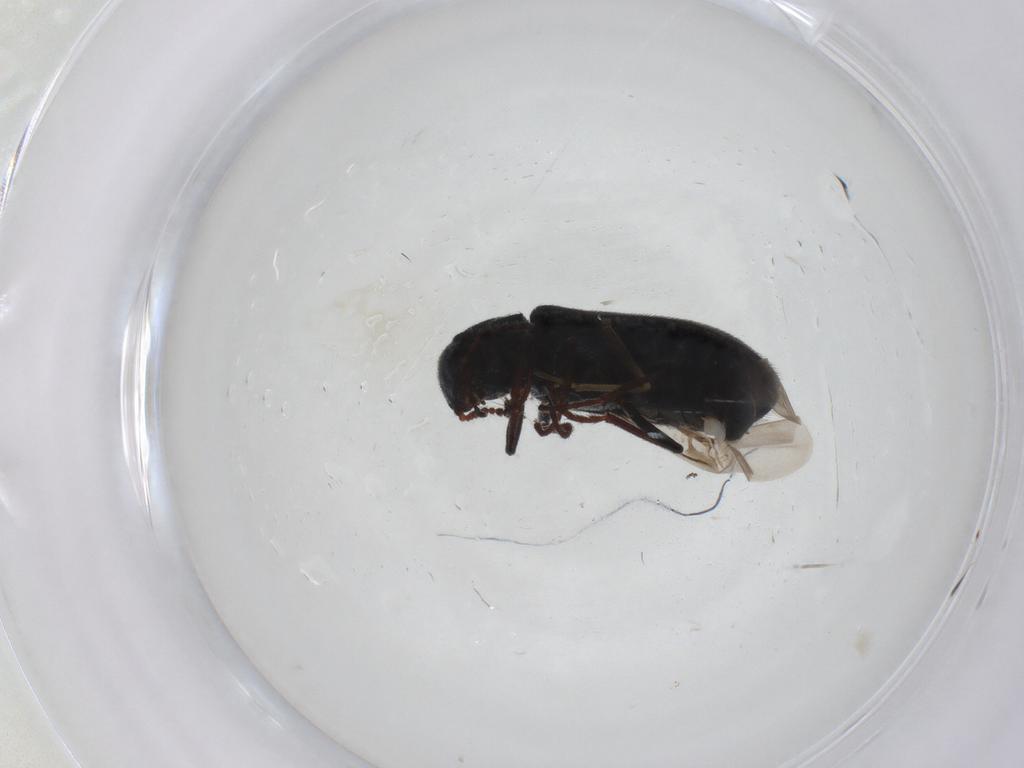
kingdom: Animalia
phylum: Arthropoda
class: Insecta
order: Coleoptera
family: Melyridae
